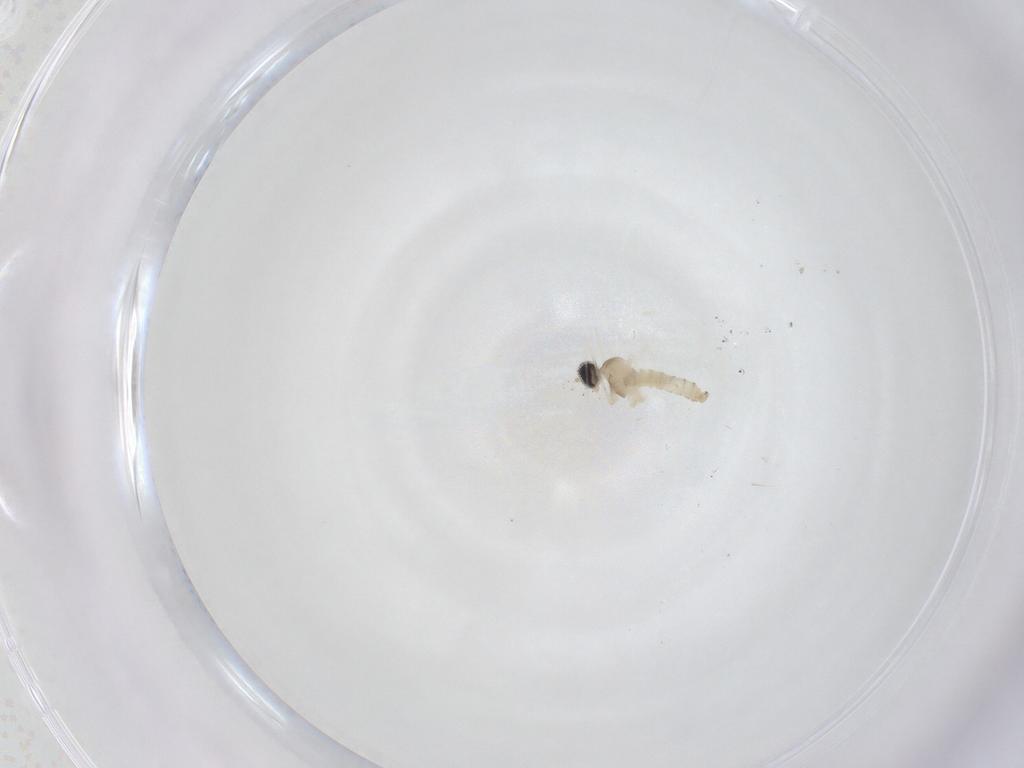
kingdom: Animalia
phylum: Arthropoda
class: Insecta
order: Diptera
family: Cecidomyiidae
